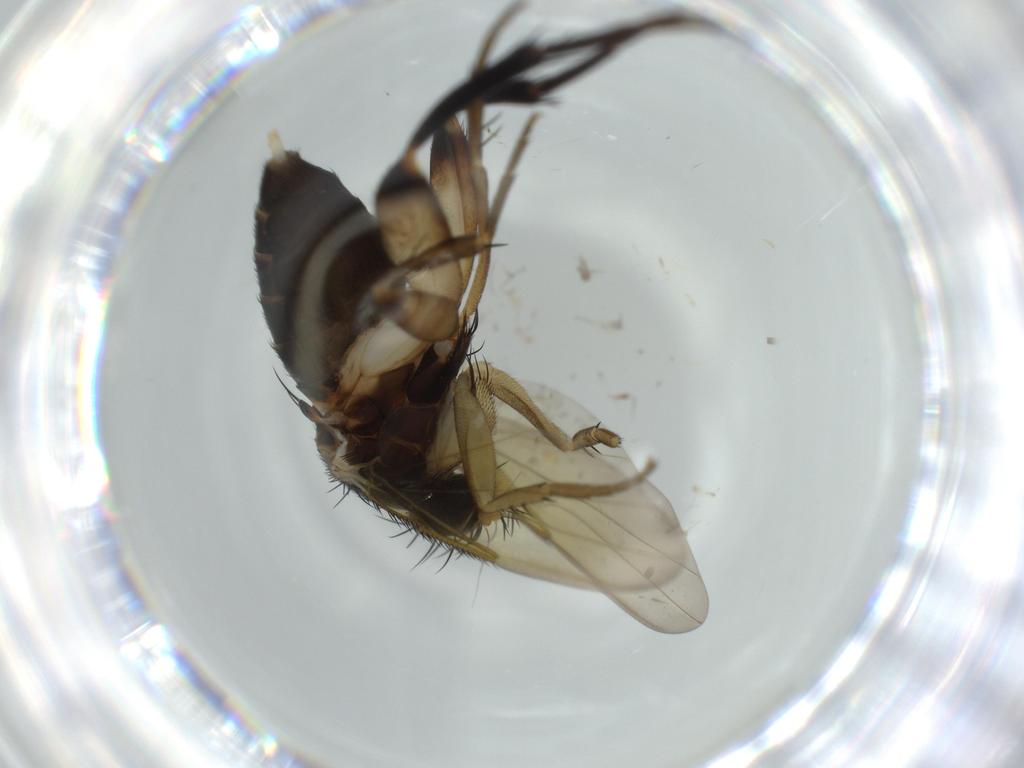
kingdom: Animalia
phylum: Arthropoda
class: Insecta
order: Diptera
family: Phoridae
